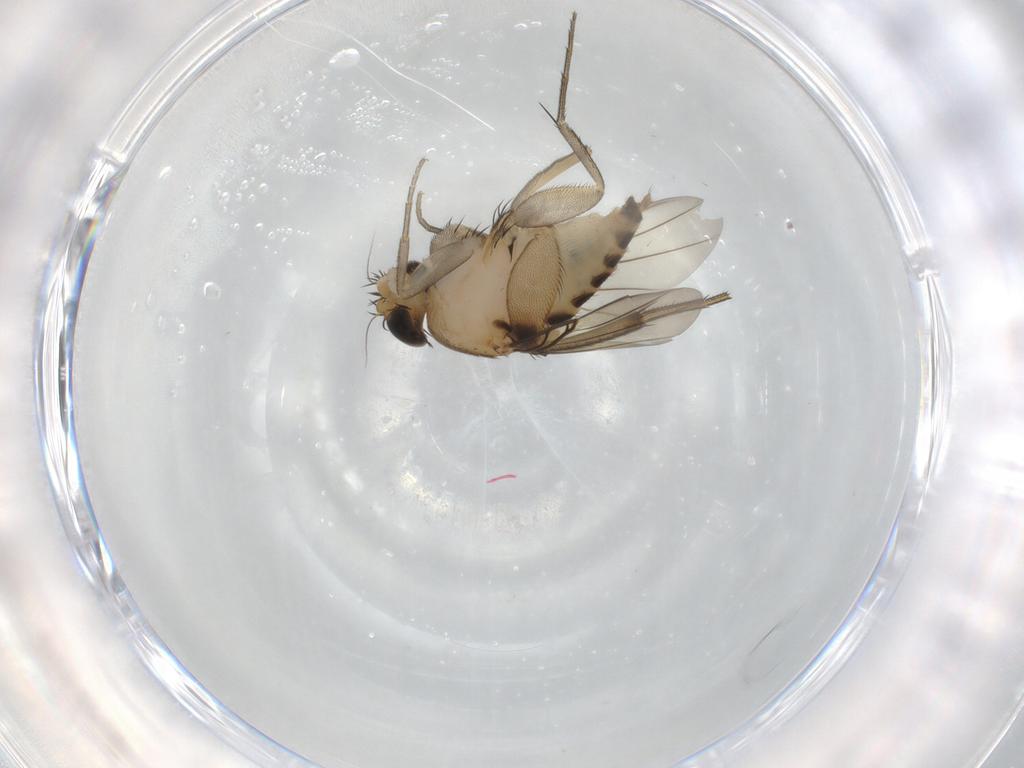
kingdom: Animalia
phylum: Arthropoda
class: Insecta
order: Diptera
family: Phoridae
